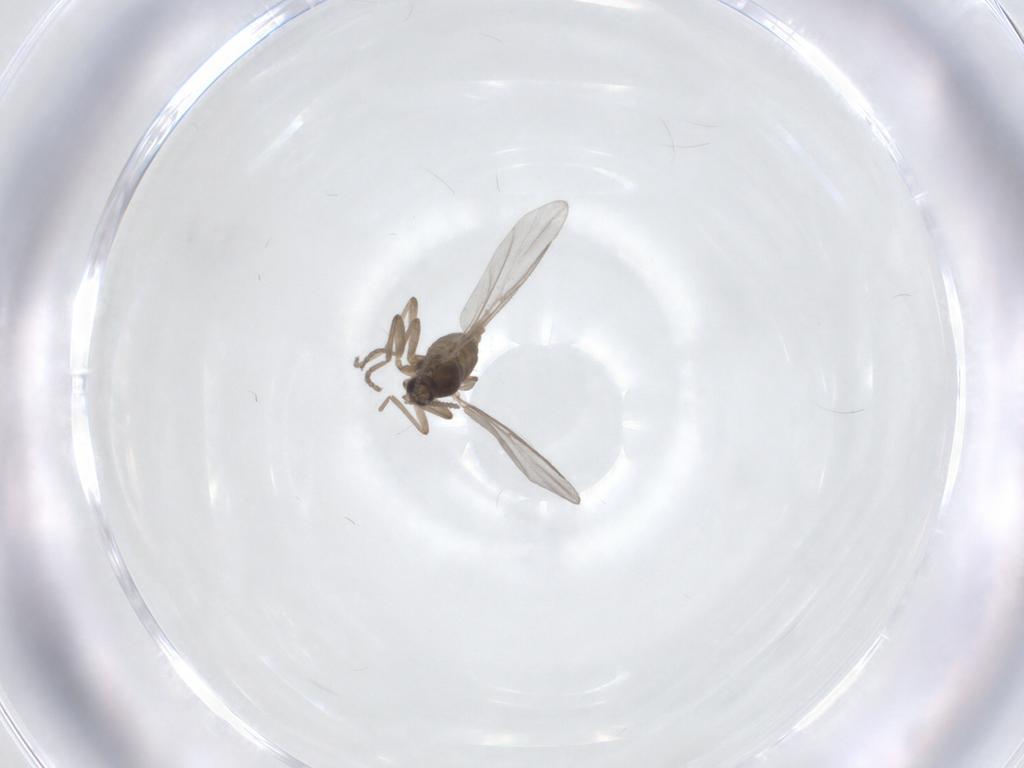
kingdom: Animalia
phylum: Arthropoda
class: Insecta
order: Diptera
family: Cecidomyiidae
